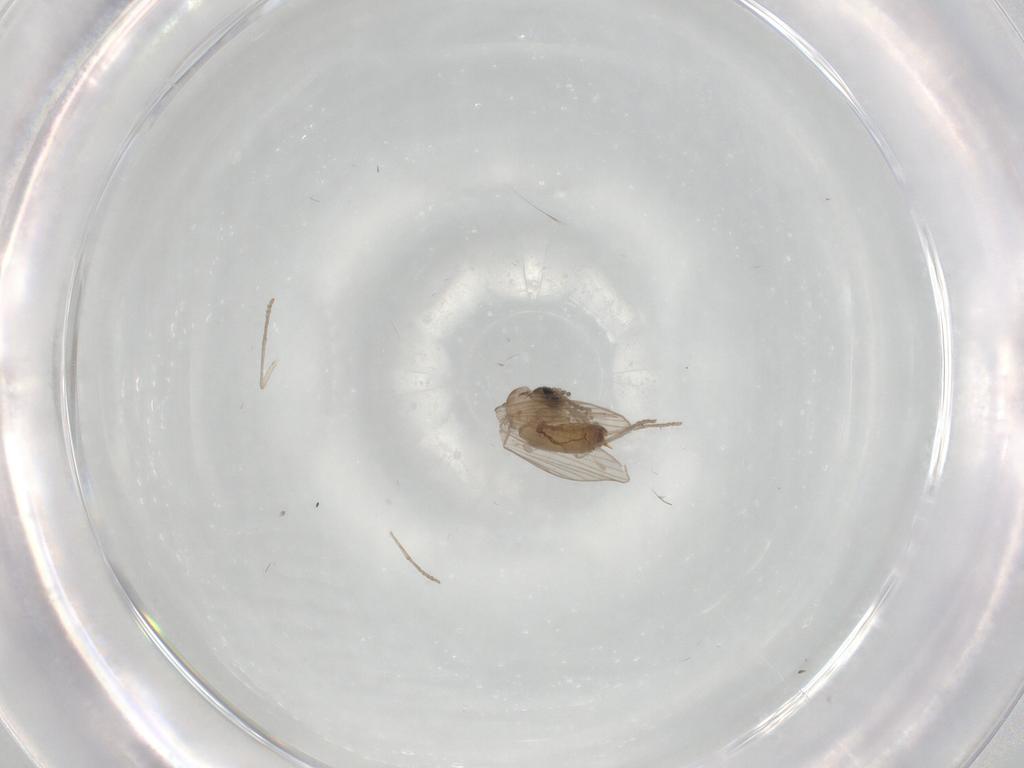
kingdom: Animalia
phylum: Arthropoda
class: Insecta
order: Diptera
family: Psychodidae
